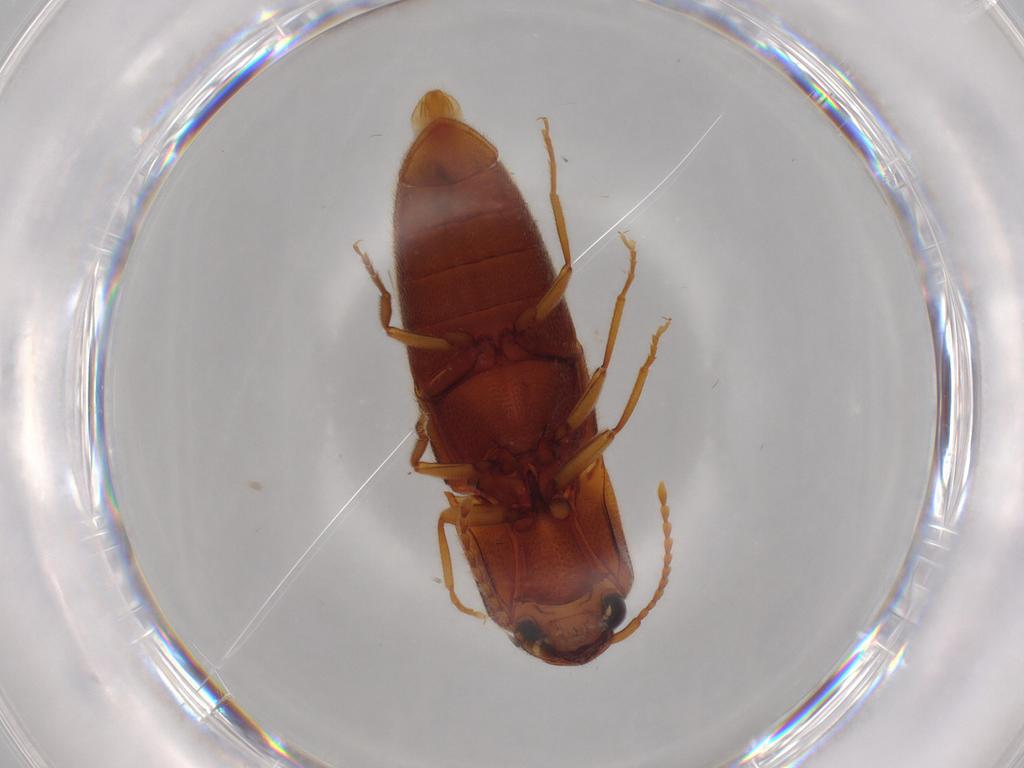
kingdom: Animalia
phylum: Arthropoda
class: Insecta
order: Coleoptera
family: Elateridae
